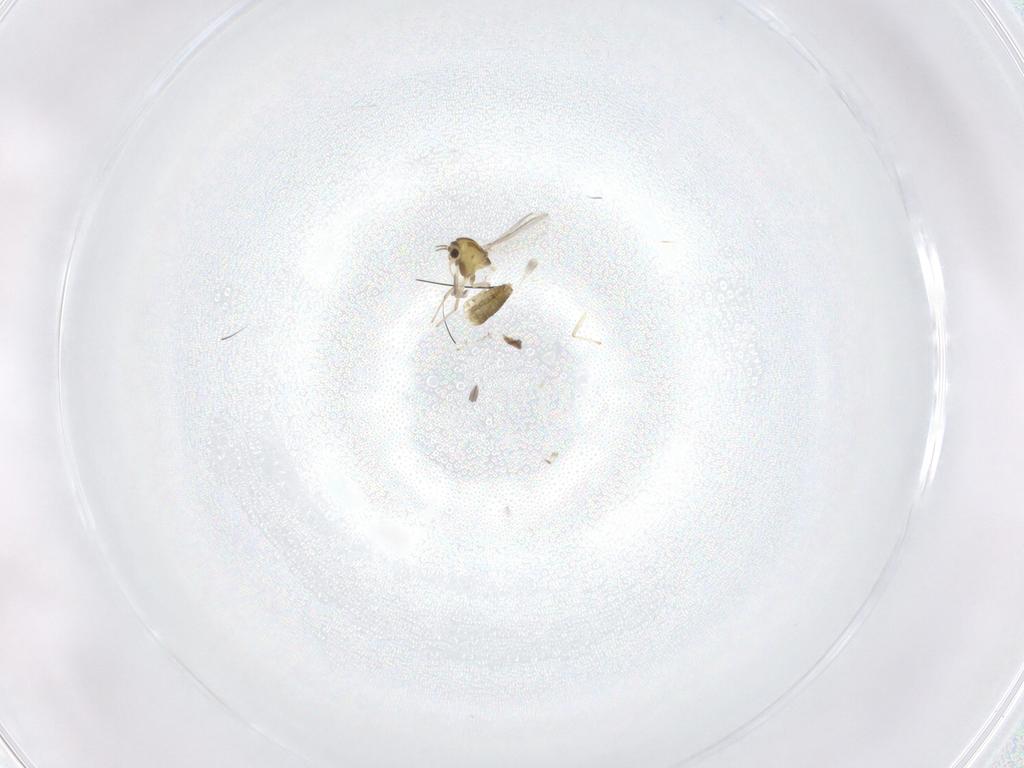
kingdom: Animalia
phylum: Arthropoda
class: Insecta
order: Diptera
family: Chironomidae
